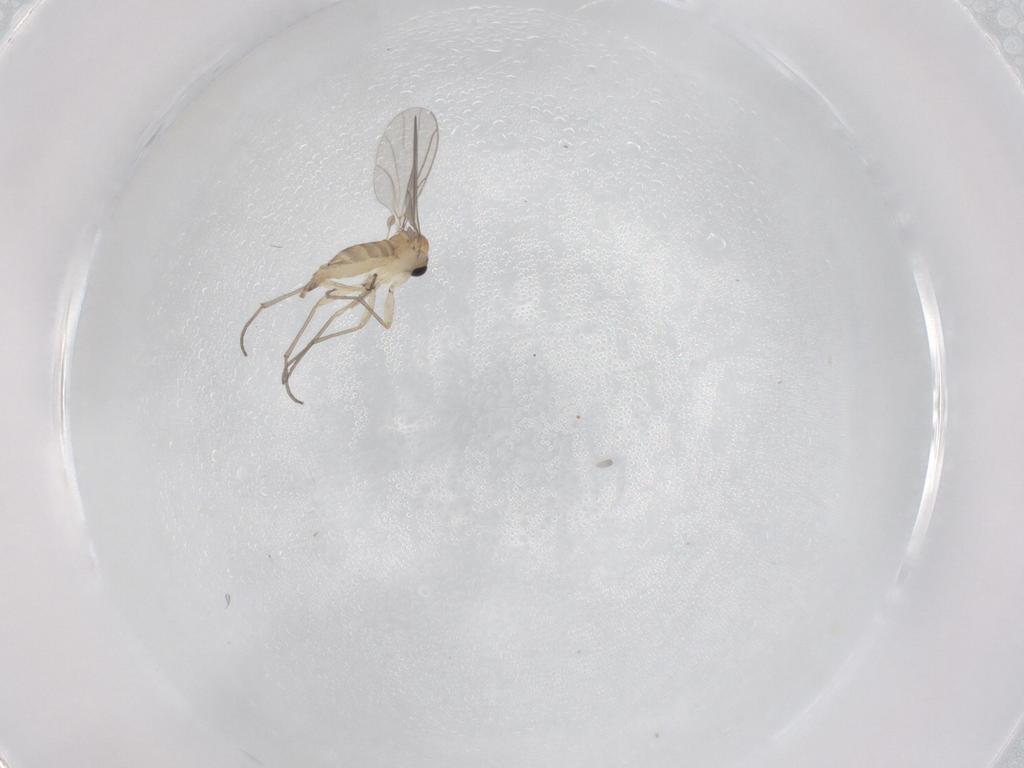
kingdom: Animalia
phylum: Arthropoda
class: Insecta
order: Diptera
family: Sciaridae
